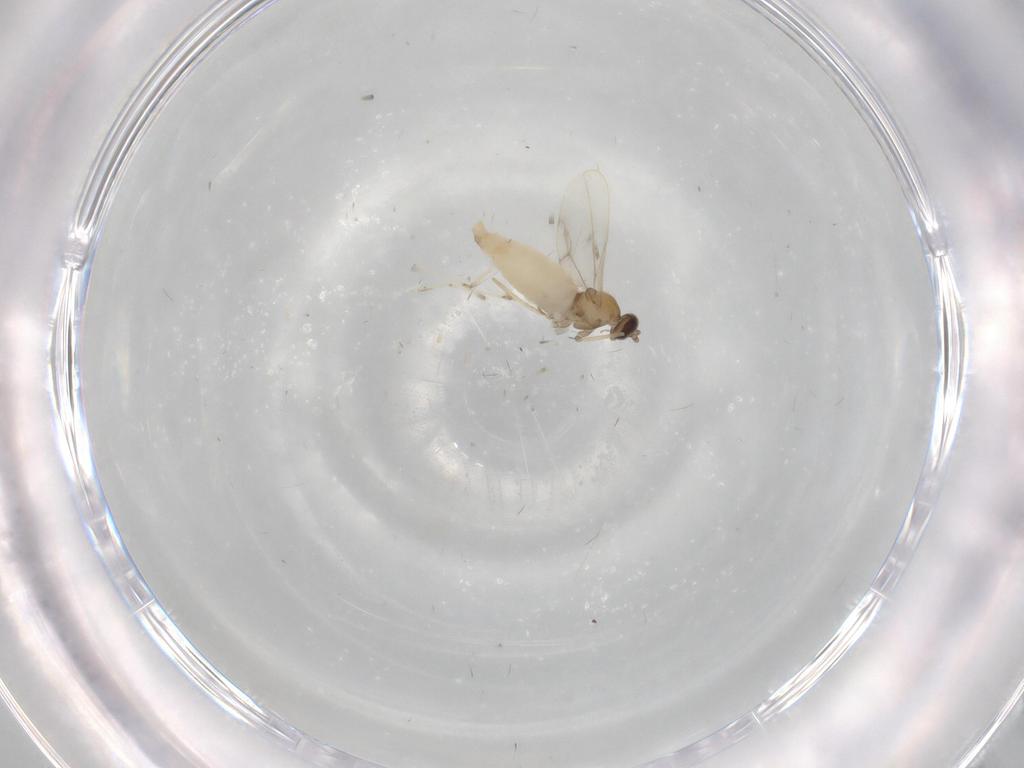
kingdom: Animalia
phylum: Arthropoda
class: Insecta
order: Diptera
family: Cecidomyiidae
